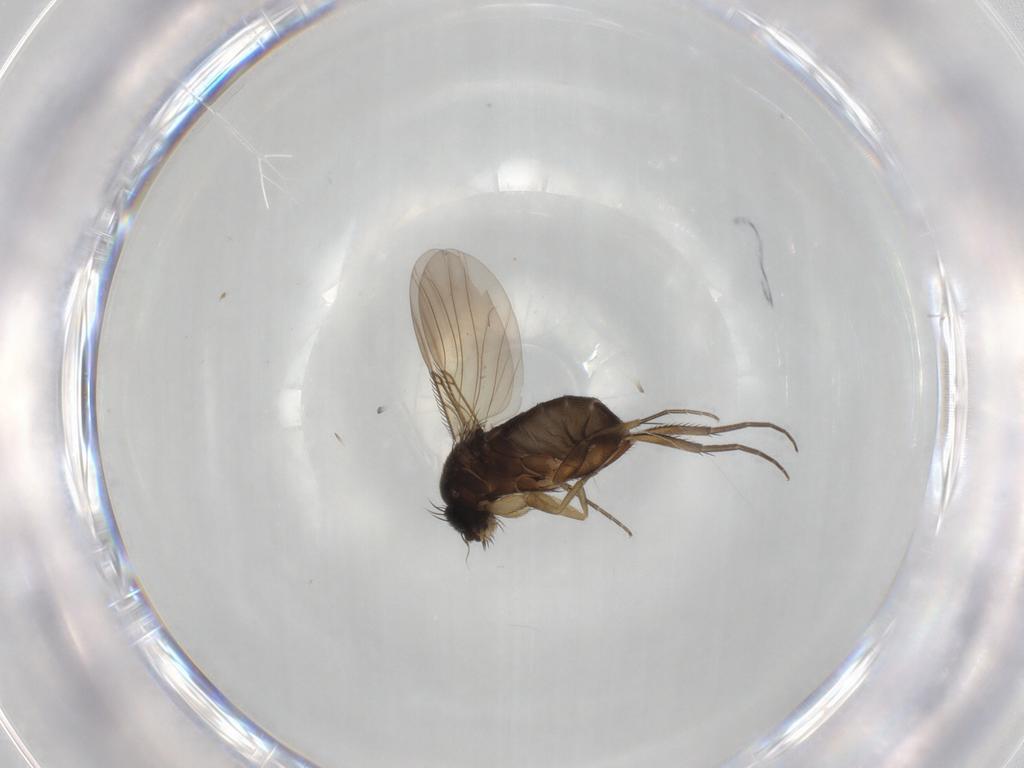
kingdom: Animalia
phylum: Arthropoda
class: Insecta
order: Diptera
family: Phoridae
